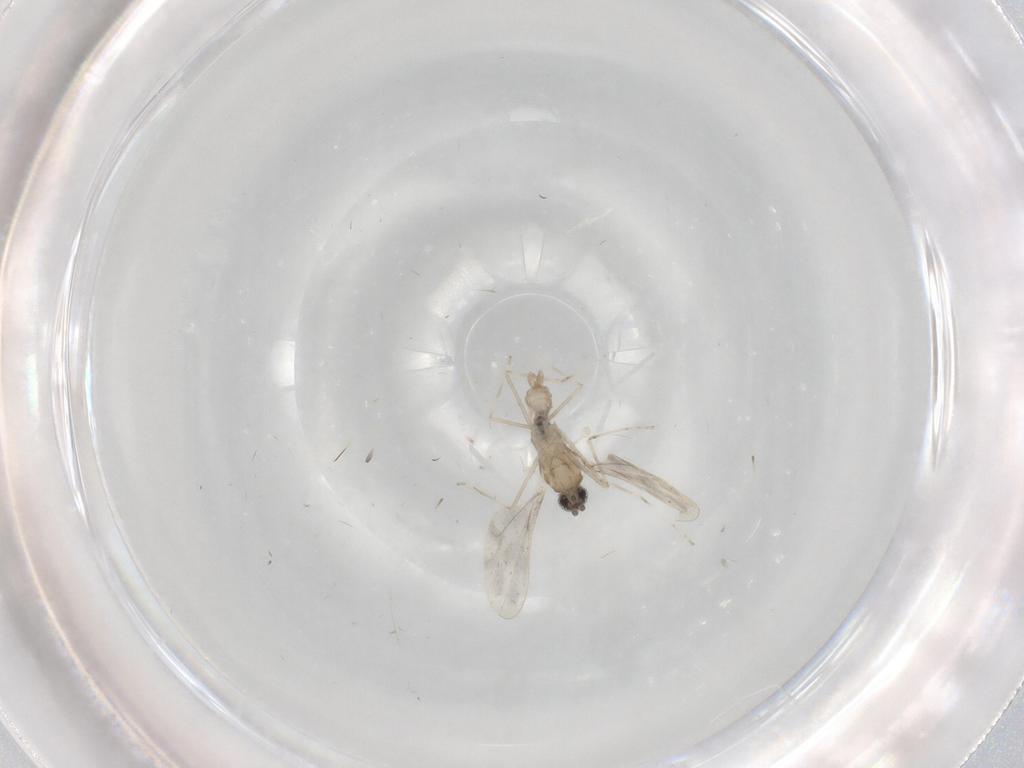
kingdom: Animalia
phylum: Arthropoda
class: Insecta
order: Diptera
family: Cecidomyiidae
